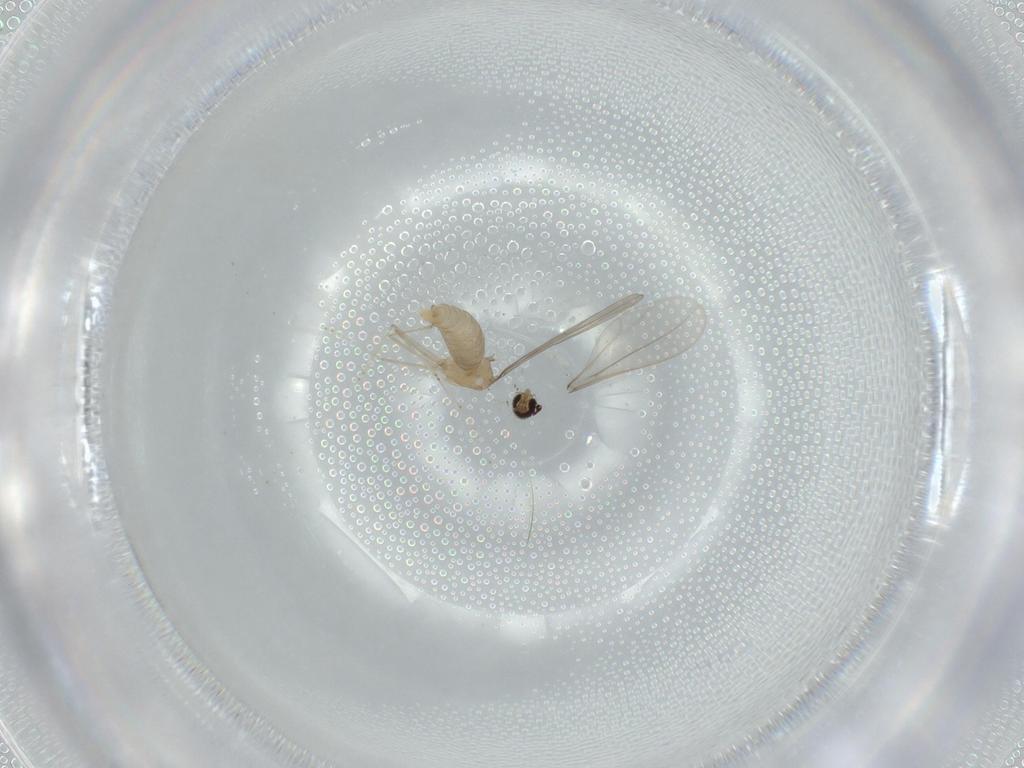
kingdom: Animalia
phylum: Arthropoda
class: Insecta
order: Diptera
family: Cecidomyiidae
